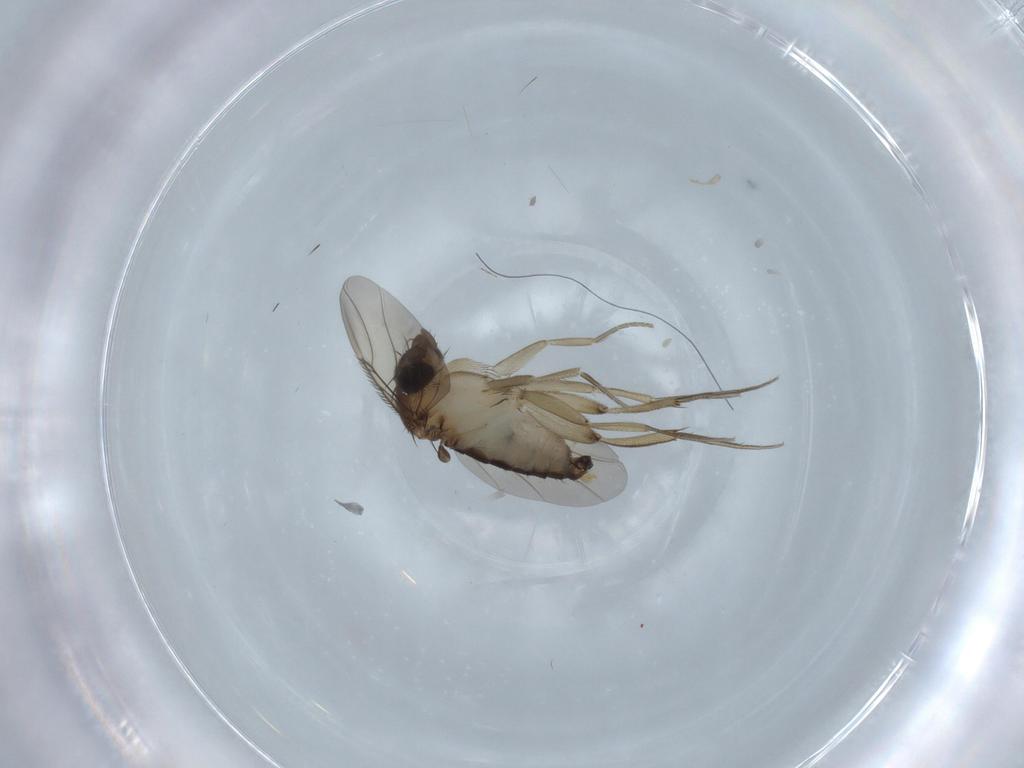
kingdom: Animalia
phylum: Arthropoda
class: Insecta
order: Diptera
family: Phoridae
